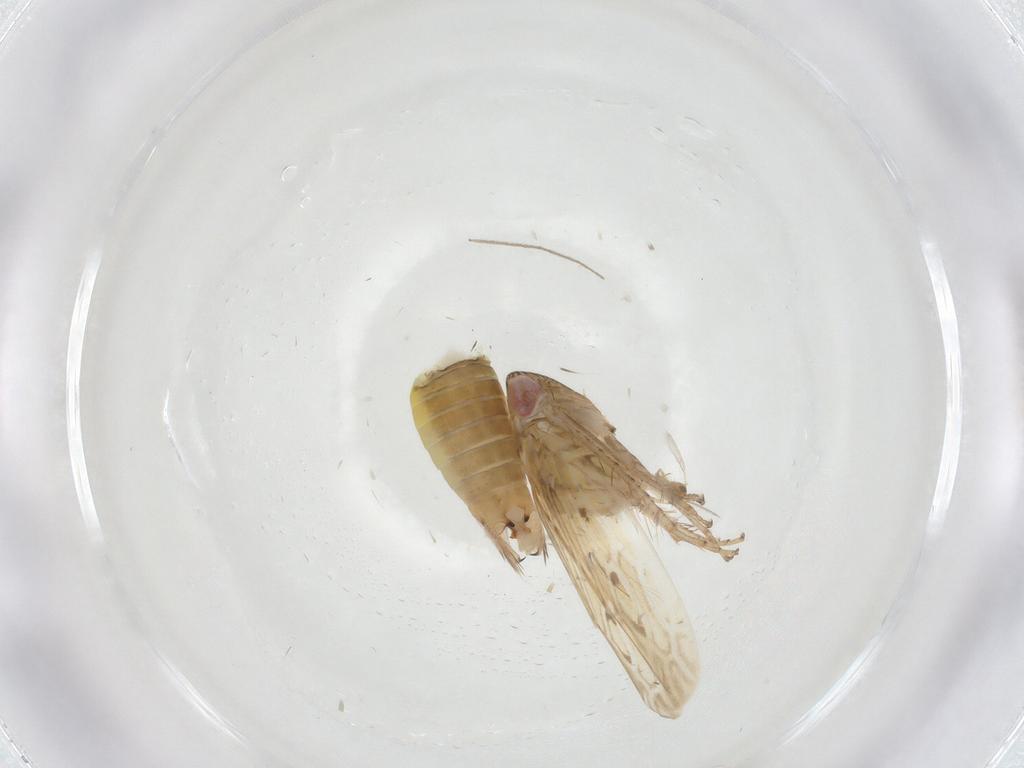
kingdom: Animalia
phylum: Arthropoda
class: Insecta
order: Hemiptera
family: Cicadellidae
